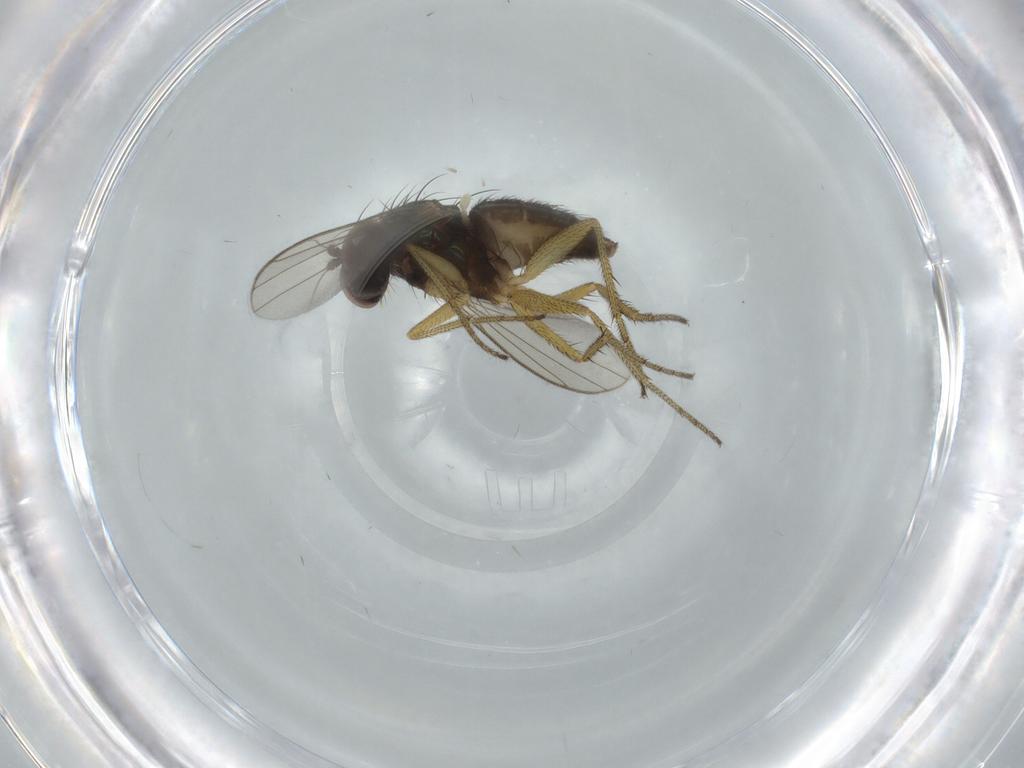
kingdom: Animalia
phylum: Arthropoda
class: Insecta
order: Diptera
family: Dolichopodidae
